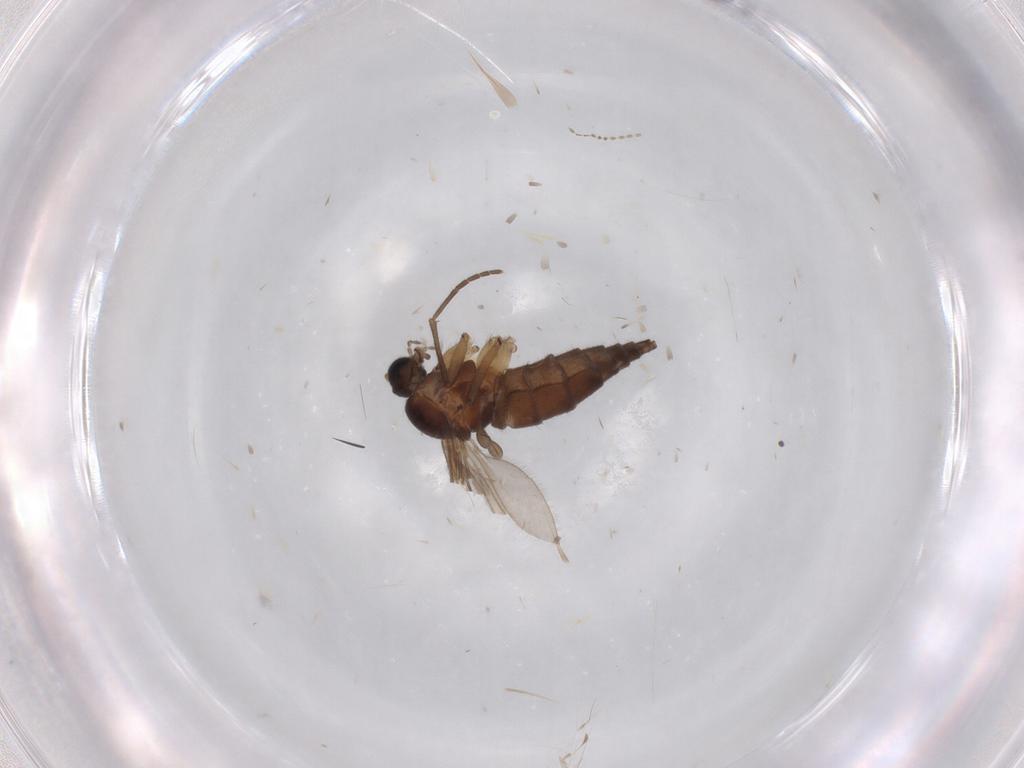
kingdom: Animalia
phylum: Arthropoda
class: Insecta
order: Diptera
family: Sciaridae
